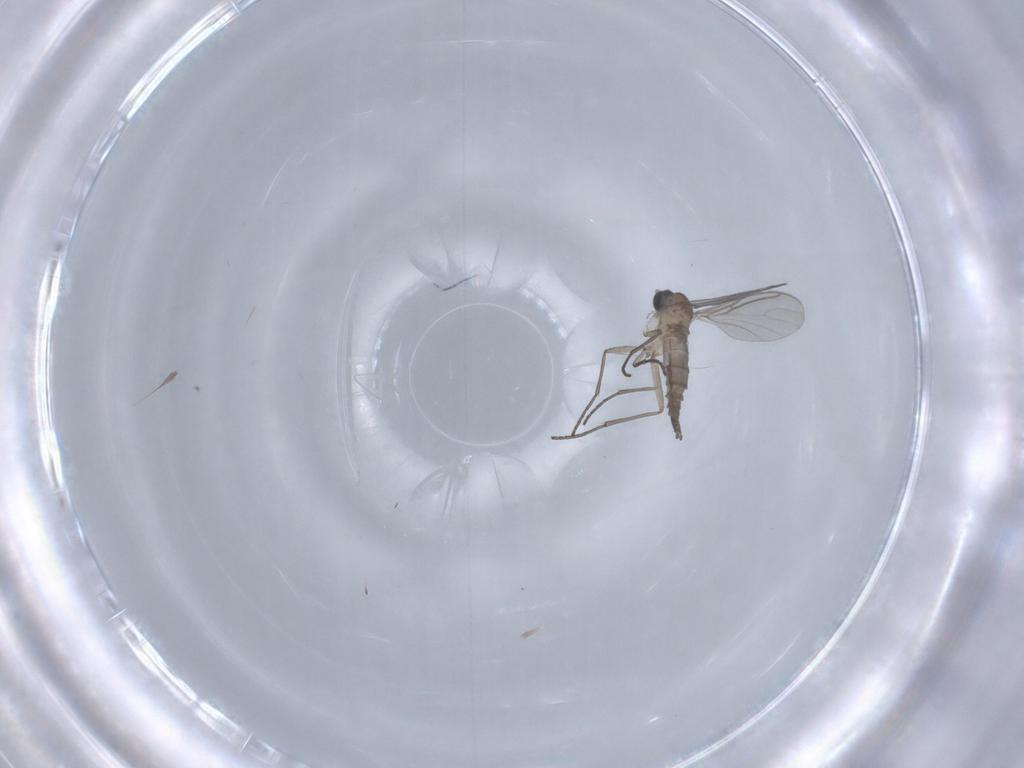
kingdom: Animalia
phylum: Arthropoda
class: Insecta
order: Diptera
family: Sciaridae
